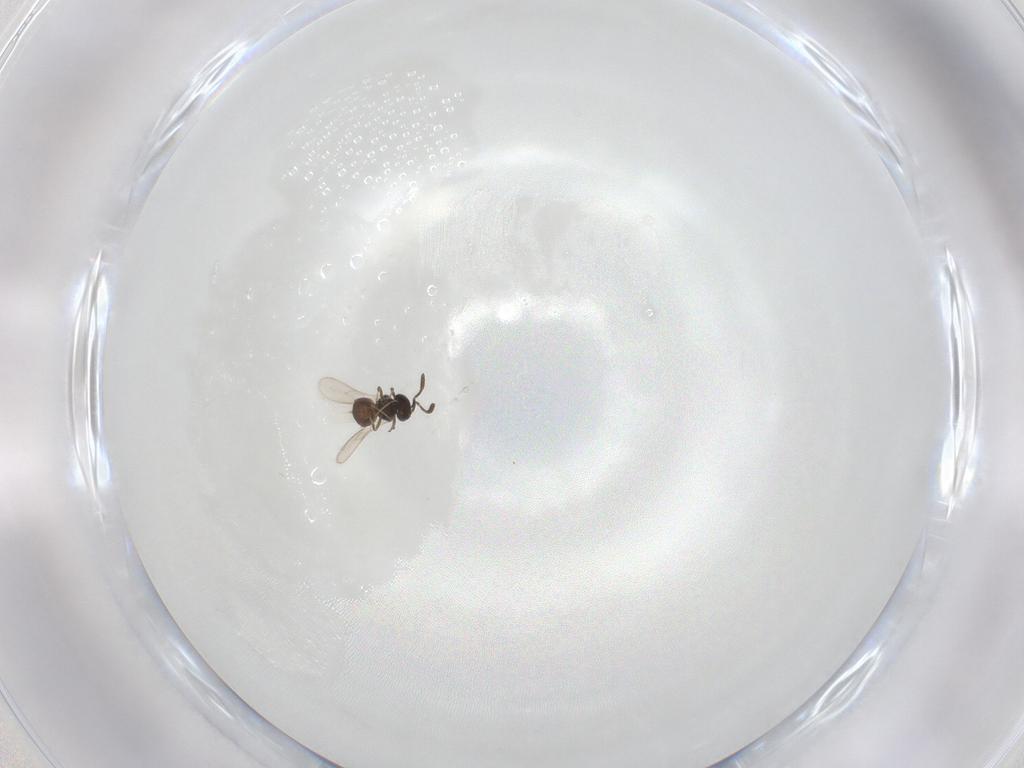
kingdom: Animalia
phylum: Arthropoda
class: Insecta
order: Hymenoptera
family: Scelionidae
